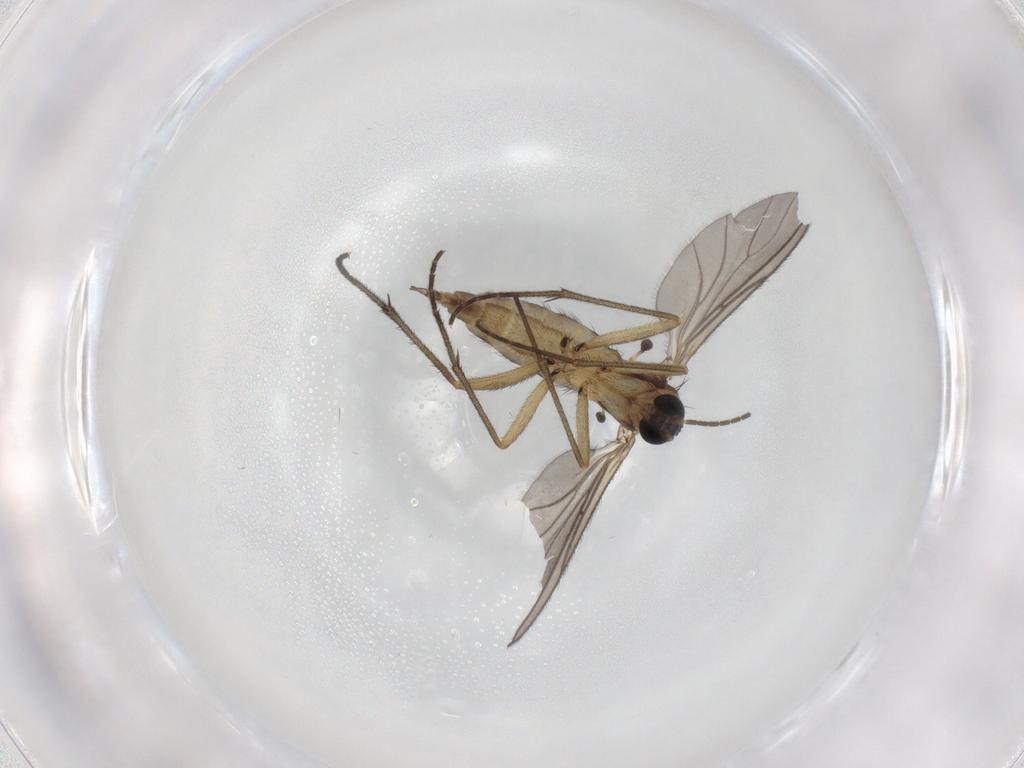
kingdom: Animalia
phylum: Arthropoda
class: Insecta
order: Diptera
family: Sciaridae
